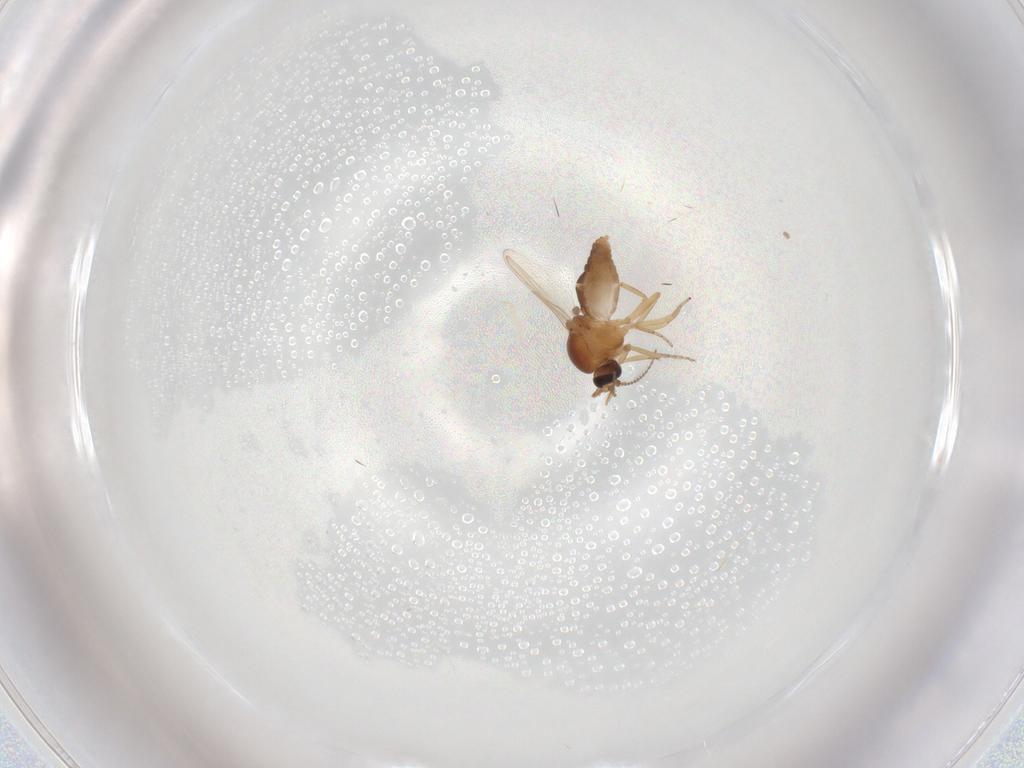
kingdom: Animalia
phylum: Arthropoda
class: Insecta
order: Diptera
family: Ceratopogonidae
